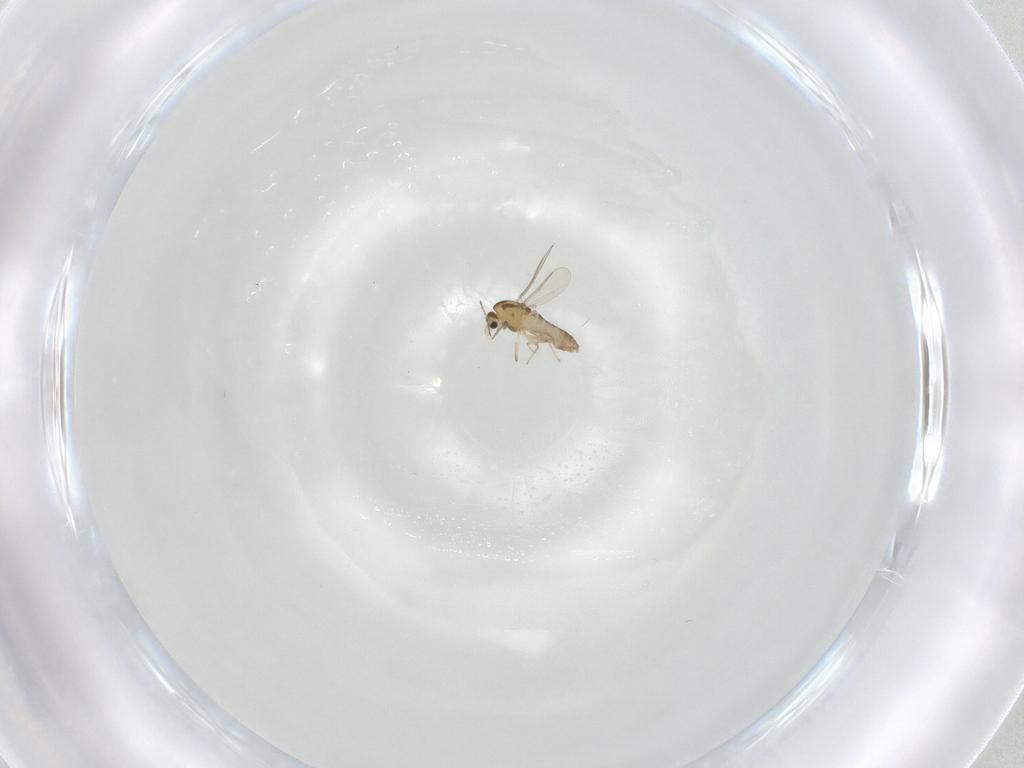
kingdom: Animalia
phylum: Arthropoda
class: Insecta
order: Diptera
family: Chironomidae
